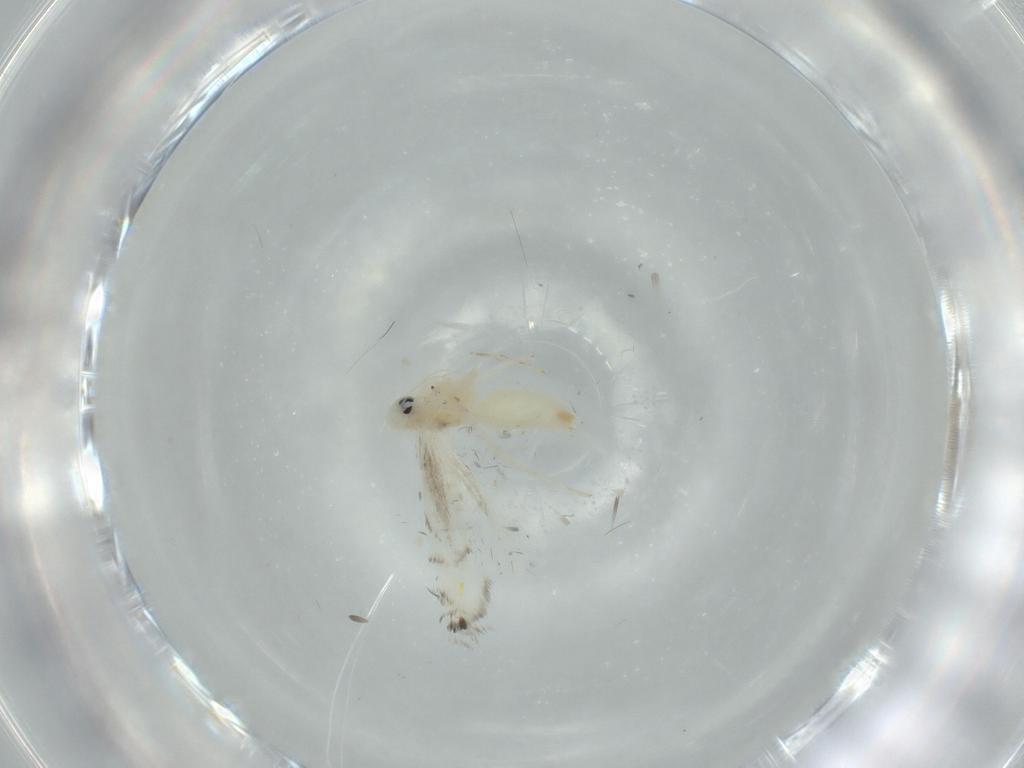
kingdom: Animalia
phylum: Arthropoda
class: Insecta
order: Lepidoptera
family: Gracillariidae
